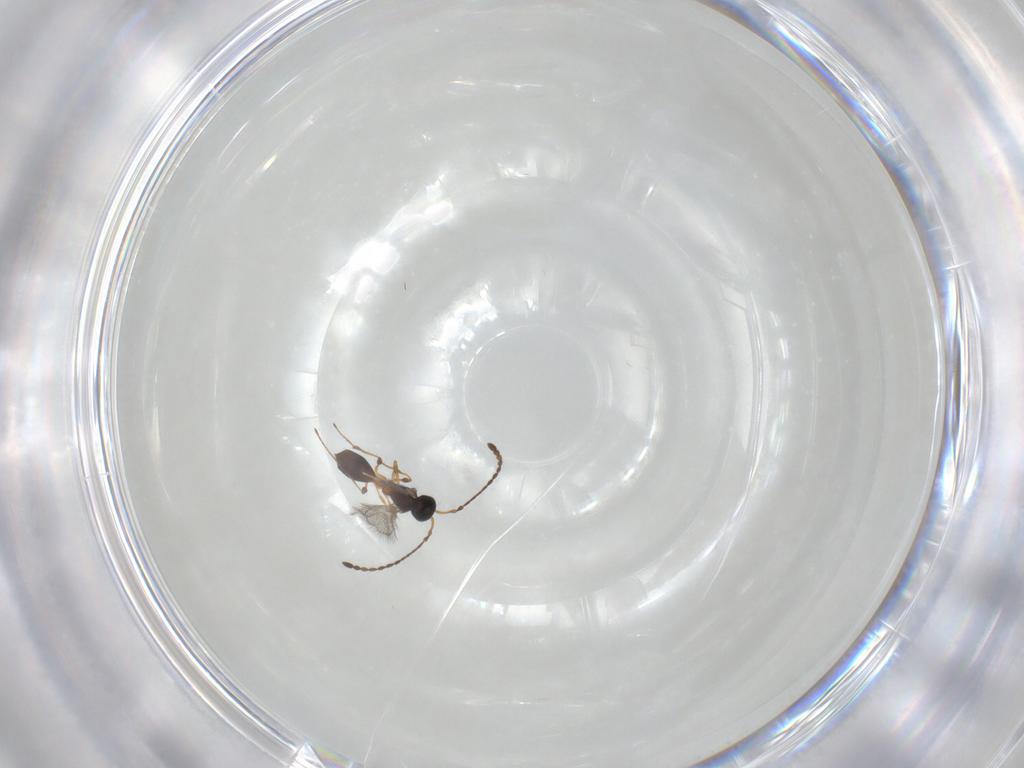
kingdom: Animalia
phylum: Arthropoda
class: Insecta
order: Hymenoptera
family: Diapriidae
